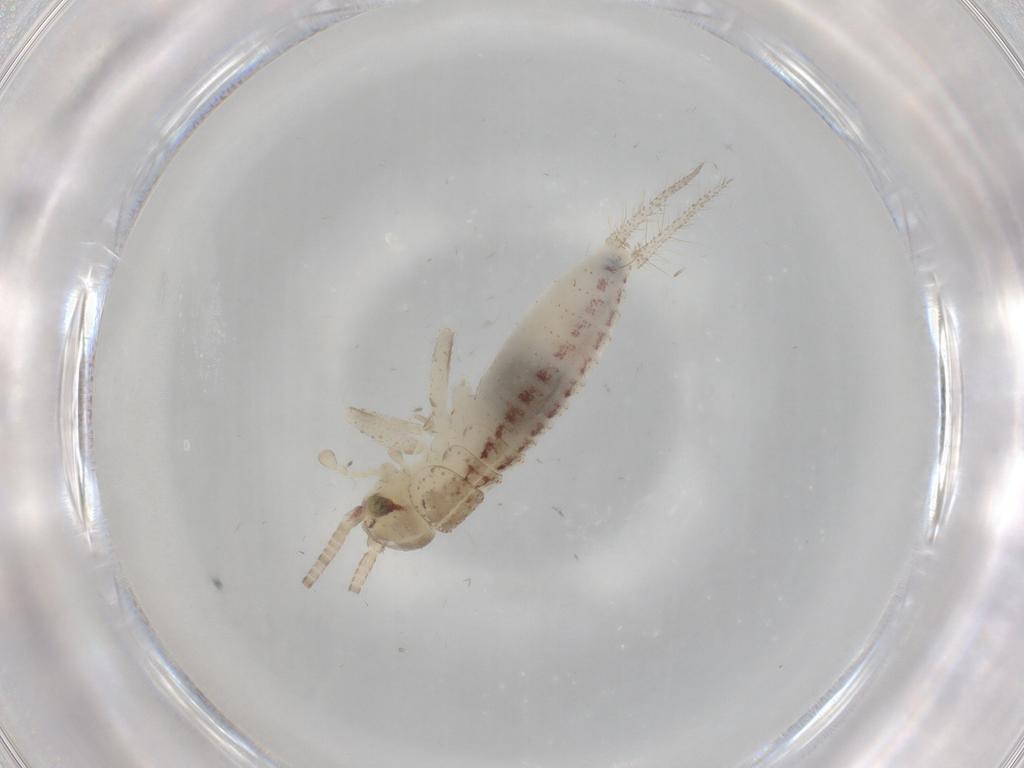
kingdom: Animalia
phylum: Arthropoda
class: Insecta
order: Orthoptera
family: Gryllidae
